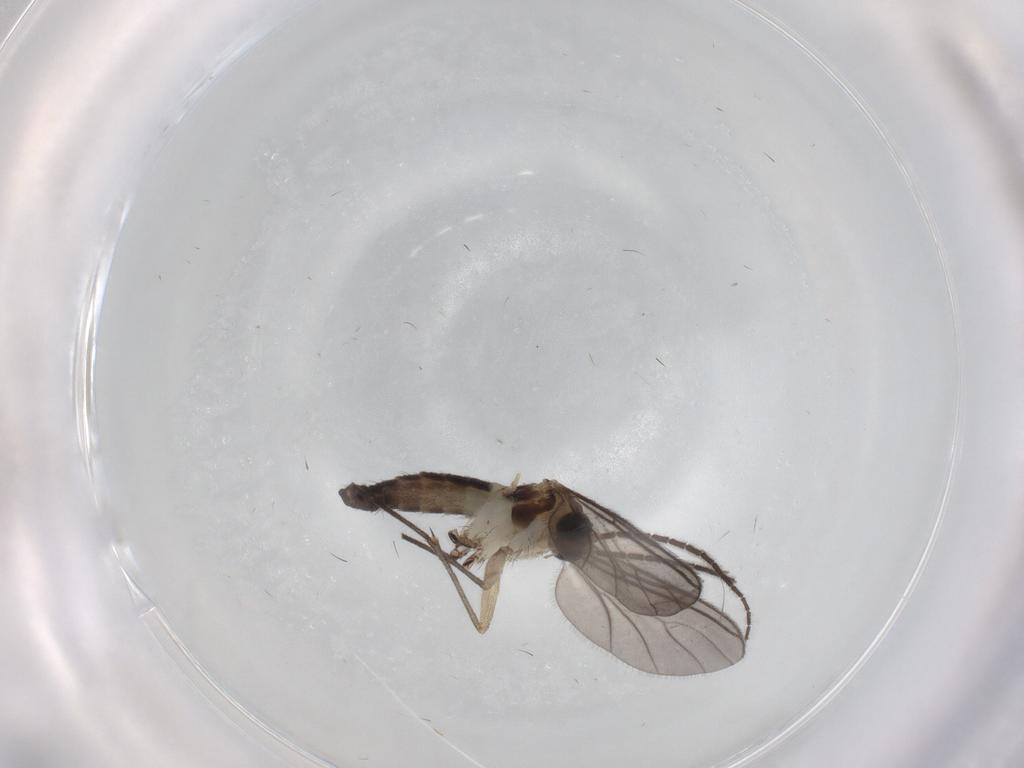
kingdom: Animalia
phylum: Arthropoda
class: Insecta
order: Diptera
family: Sciaridae
